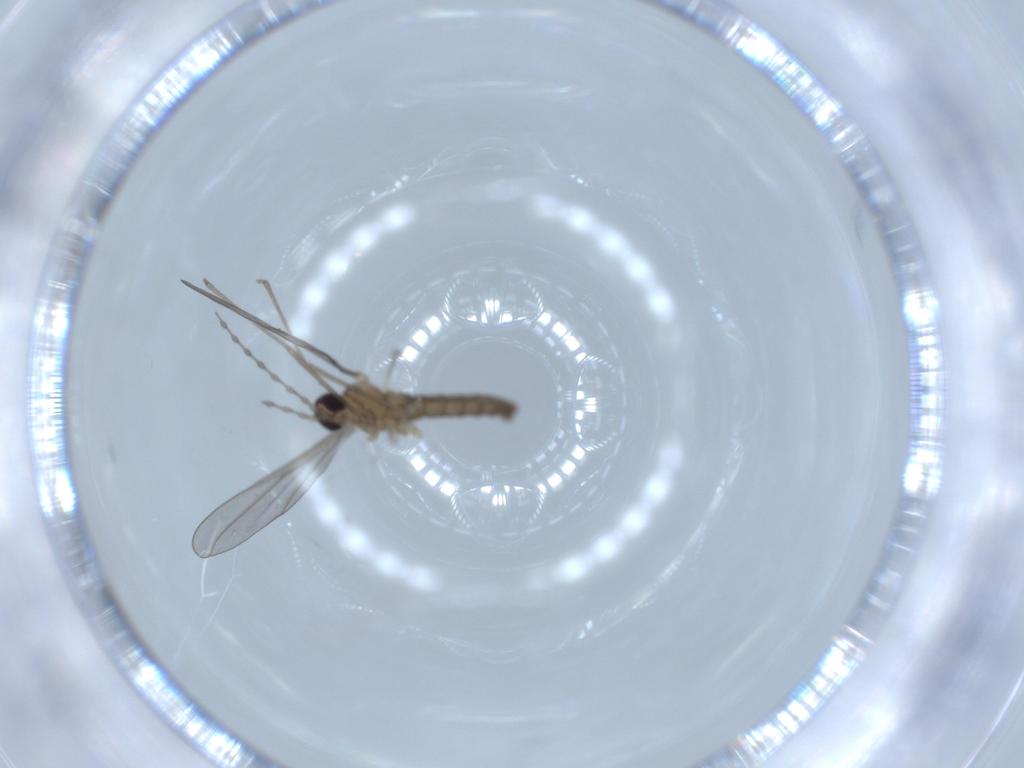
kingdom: Animalia
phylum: Arthropoda
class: Insecta
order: Diptera
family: Cecidomyiidae
